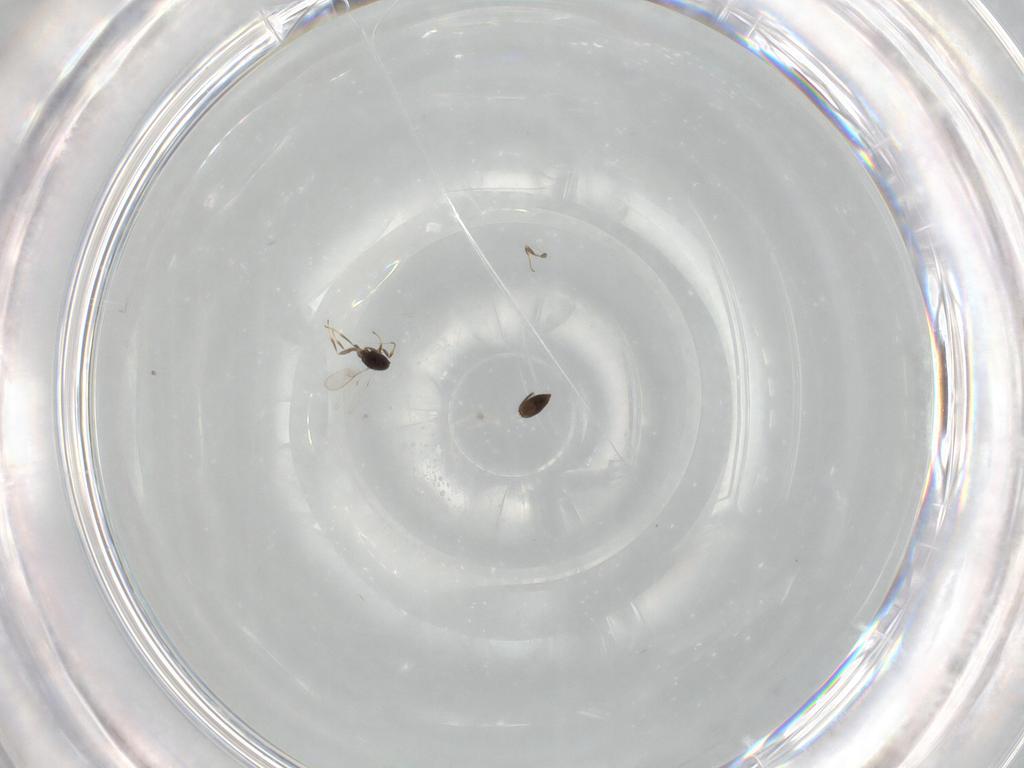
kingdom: Animalia
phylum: Arthropoda
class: Insecta
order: Hymenoptera
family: Scelionidae
